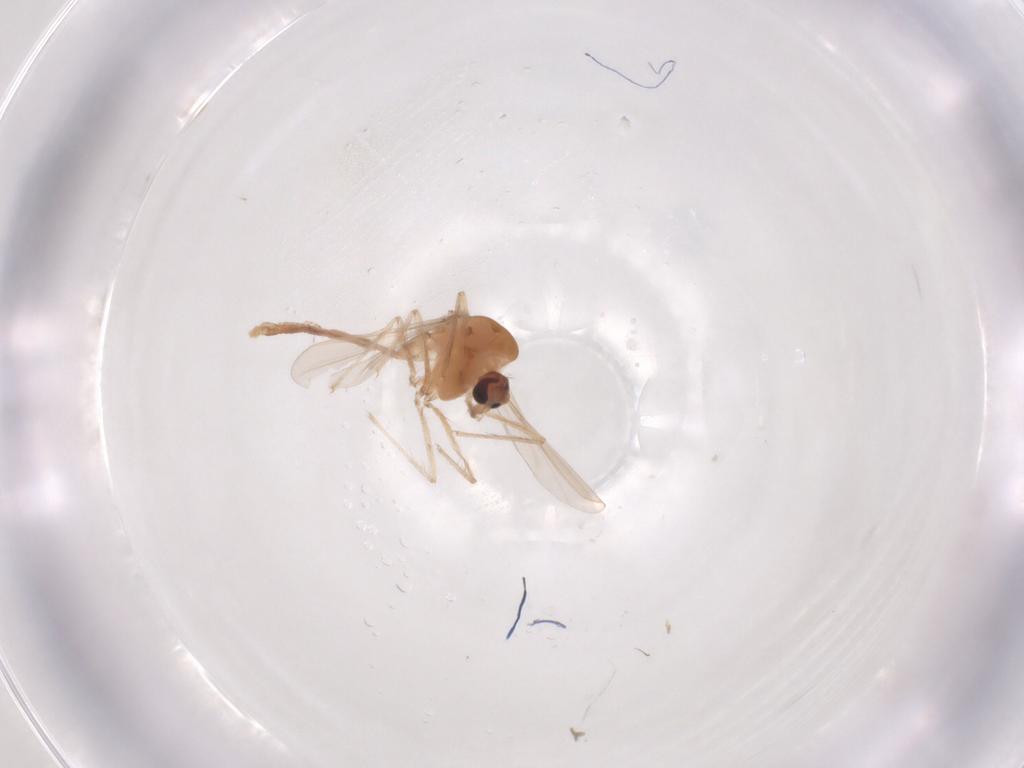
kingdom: Animalia
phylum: Arthropoda
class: Insecta
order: Diptera
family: Chironomidae
